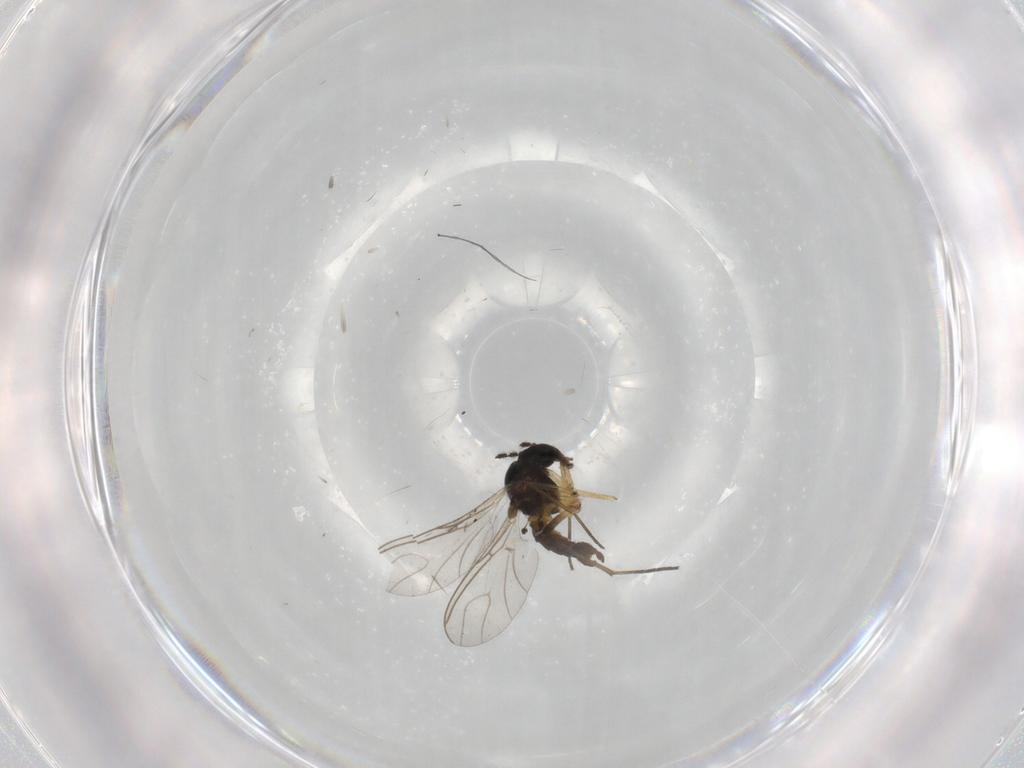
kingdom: Animalia
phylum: Arthropoda
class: Insecta
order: Diptera
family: Sciaridae
